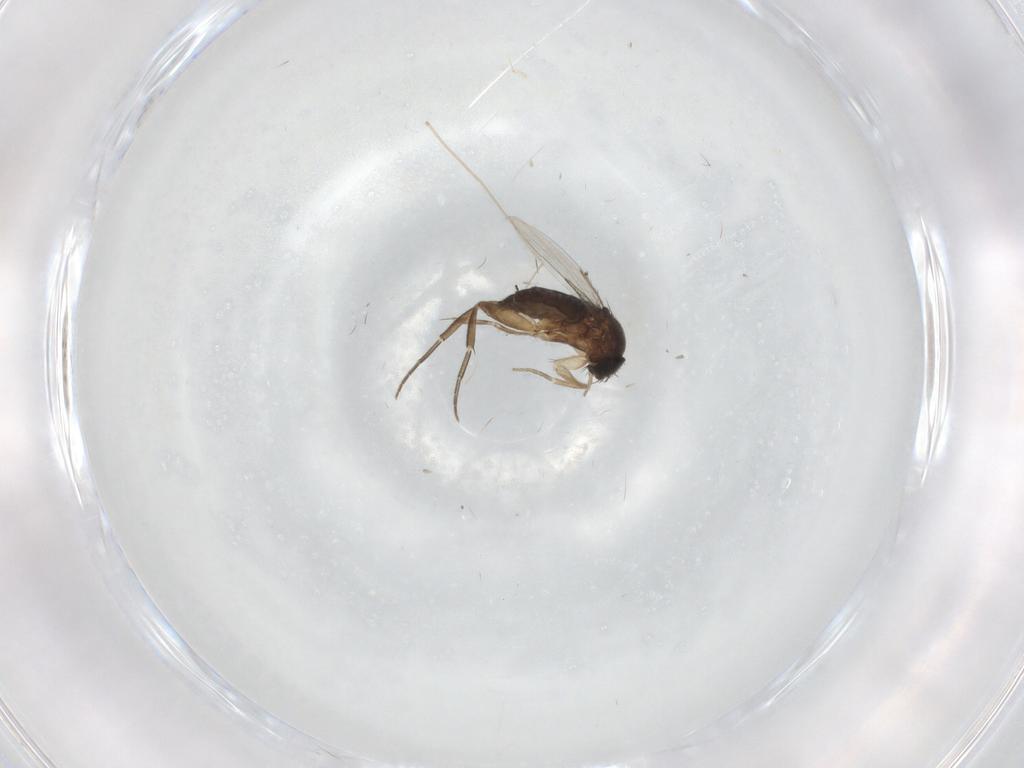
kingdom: Animalia
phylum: Arthropoda
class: Insecta
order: Diptera
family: Phoridae
